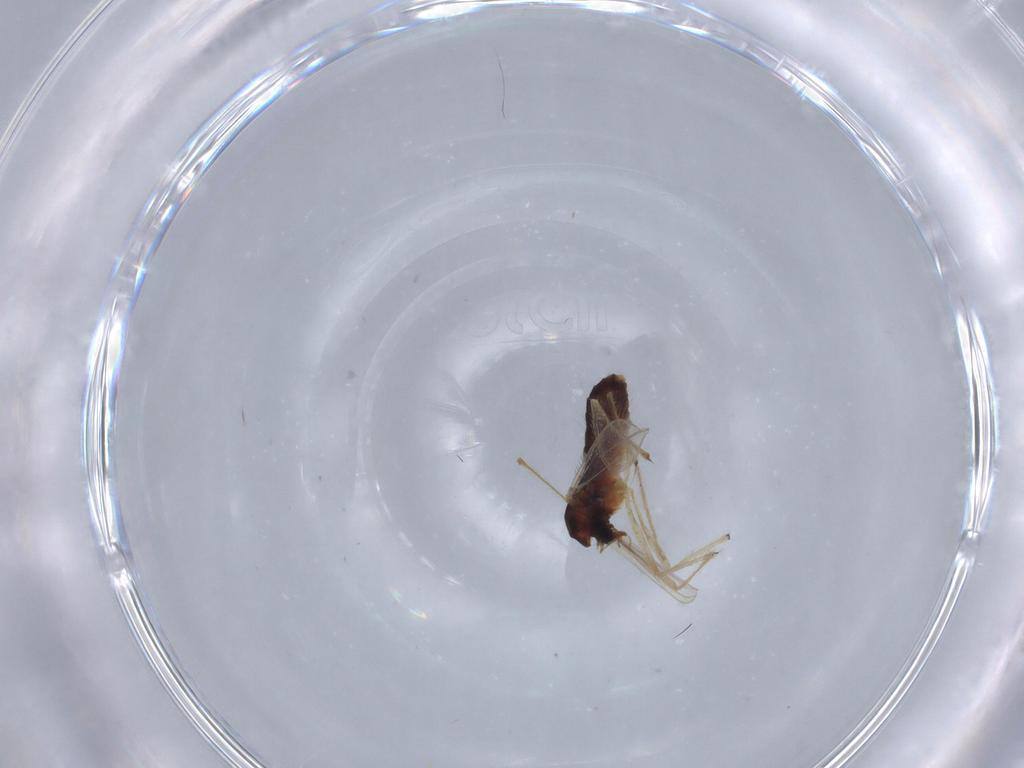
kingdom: Animalia
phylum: Arthropoda
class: Insecta
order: Diptera
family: Chironomidae
